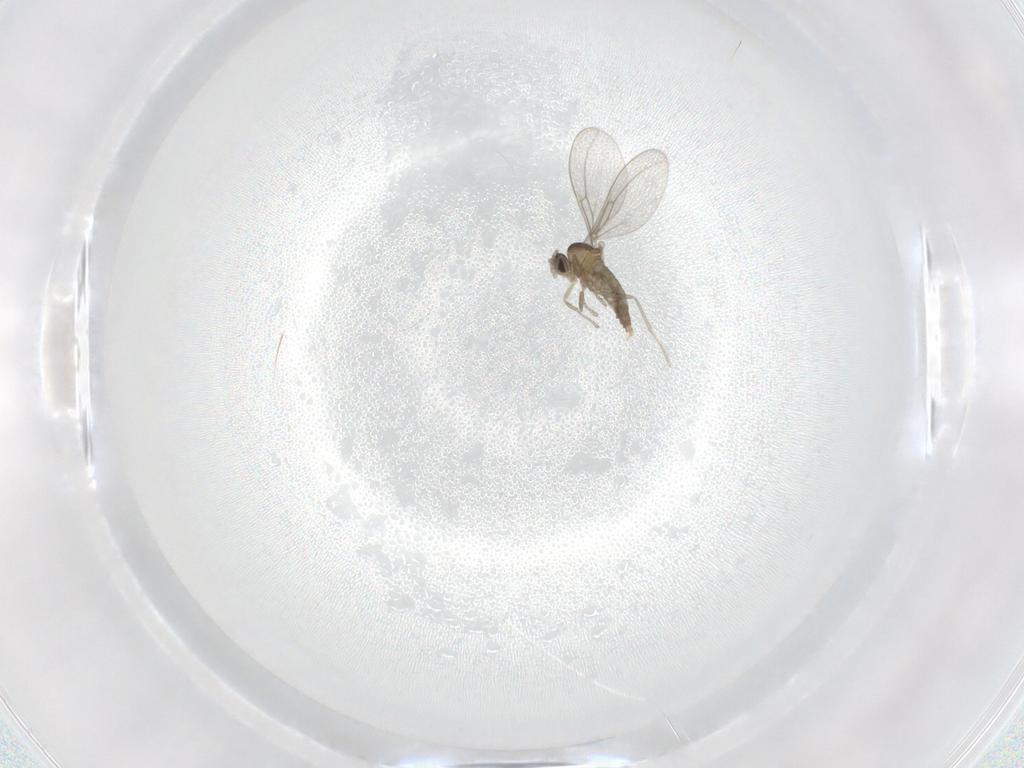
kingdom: Animalia
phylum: Arthropoda
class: Insecta
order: Diptera
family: Cecidomyiidae
